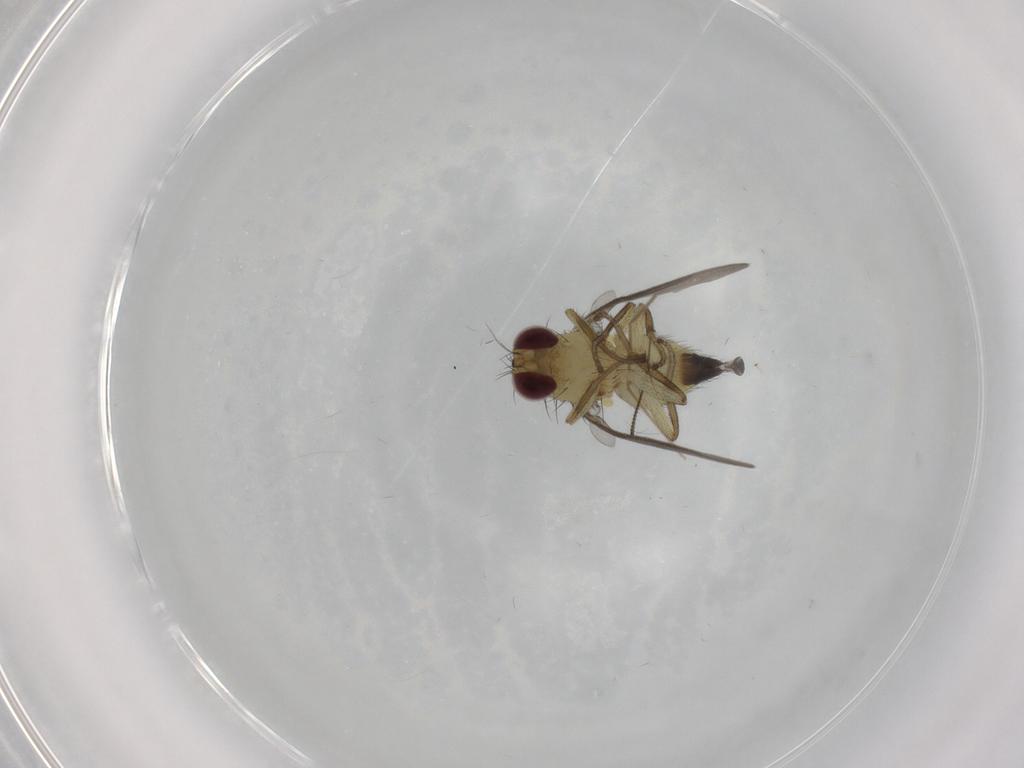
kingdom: Animalia
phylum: Arthropoda
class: Insecta
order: Diptera
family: Agromyzidae
